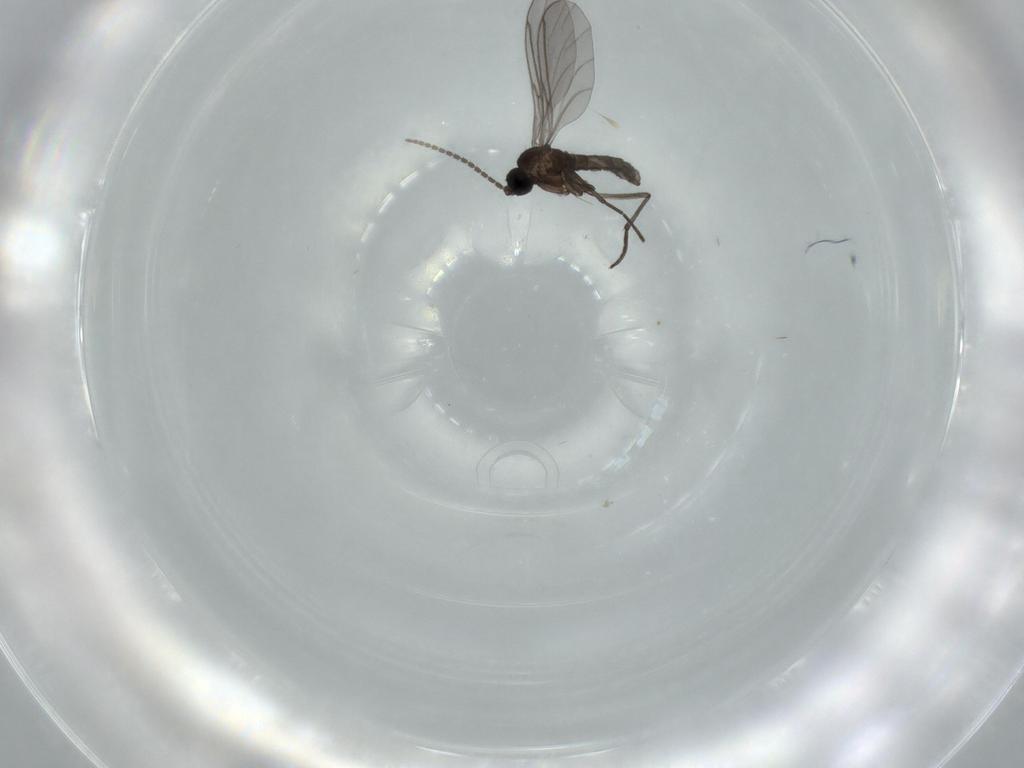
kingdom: Animalia
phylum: Arthropoda
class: Insecta
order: Diptera
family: Sciaridae
